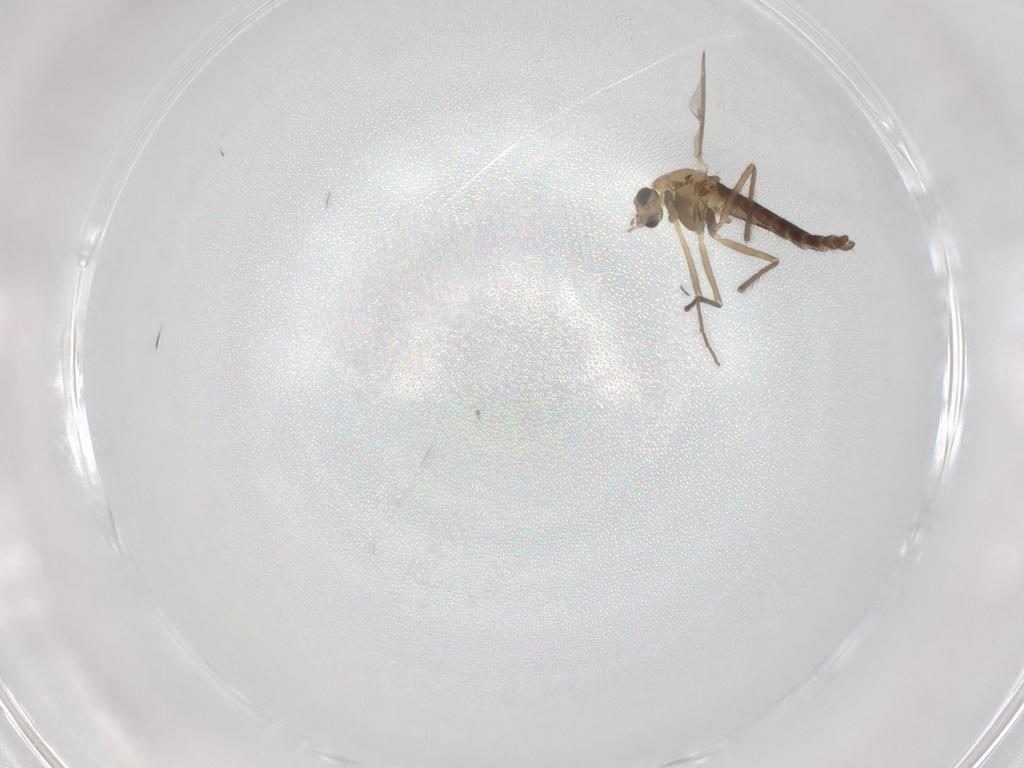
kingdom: Animalia
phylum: Arthropoda
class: Insecta
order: Diptera
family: Chironomidae
